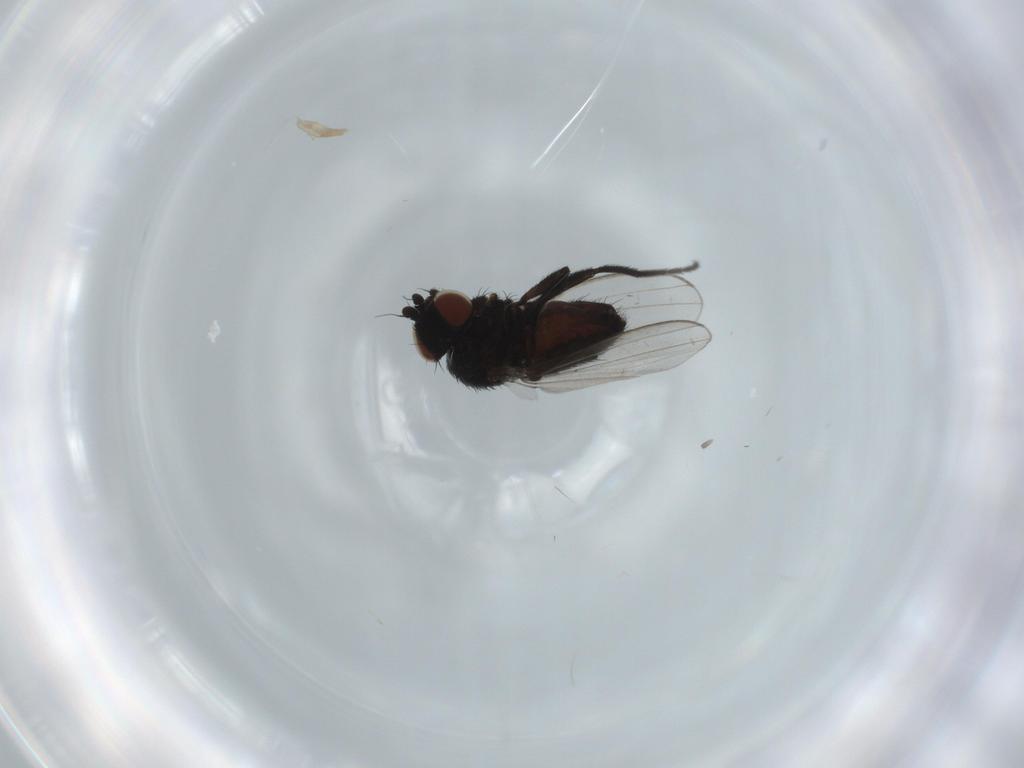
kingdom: Animalia
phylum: Arthropoda
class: Insecta
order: Diptera
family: Milichiidae
